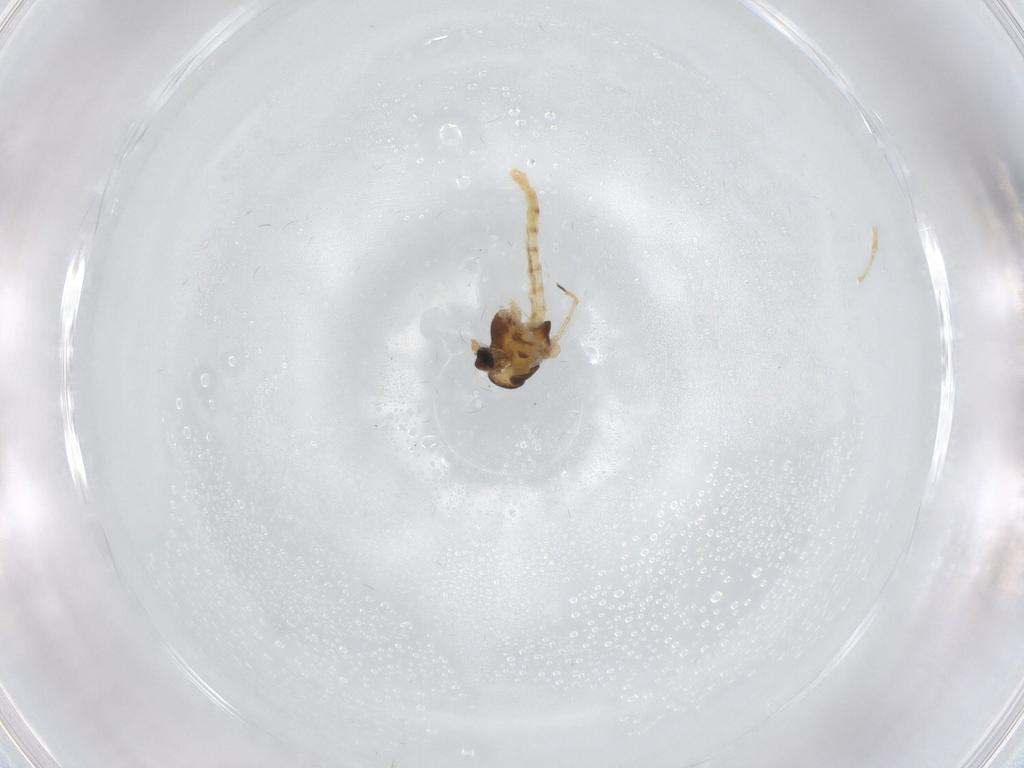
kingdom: Animalia
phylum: Arthropoda
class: Insecta
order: Diptera
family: Chironomidae
